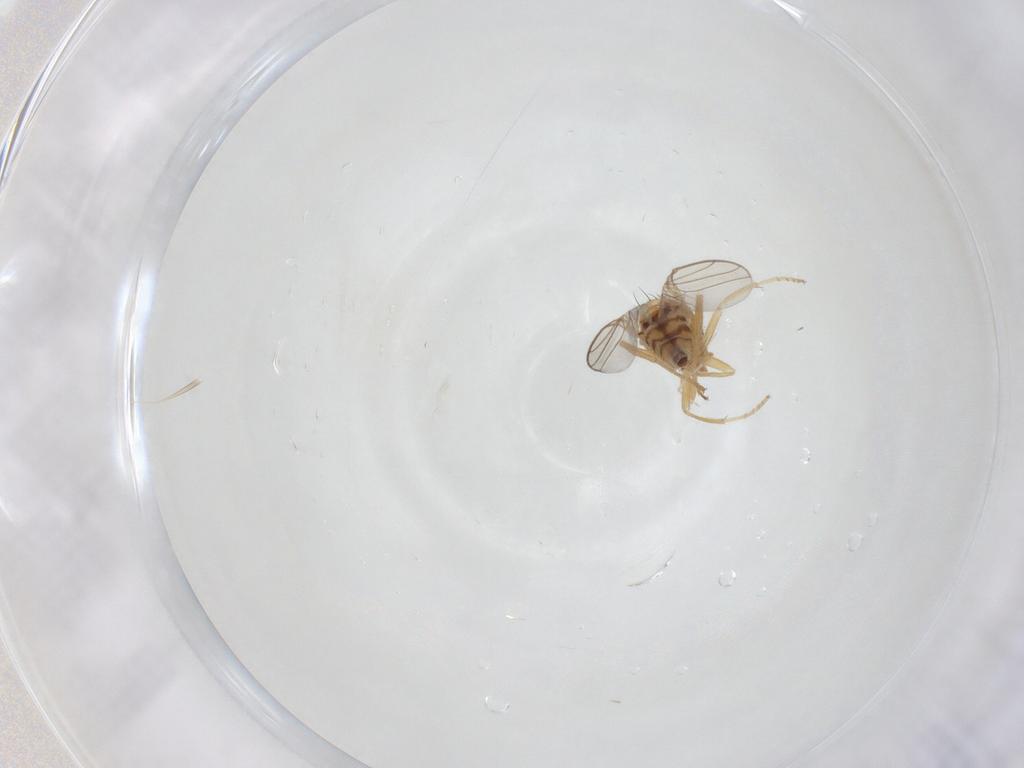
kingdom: Animalia
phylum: Arthropoda
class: Insecta
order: Diptera
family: Chloropidae
